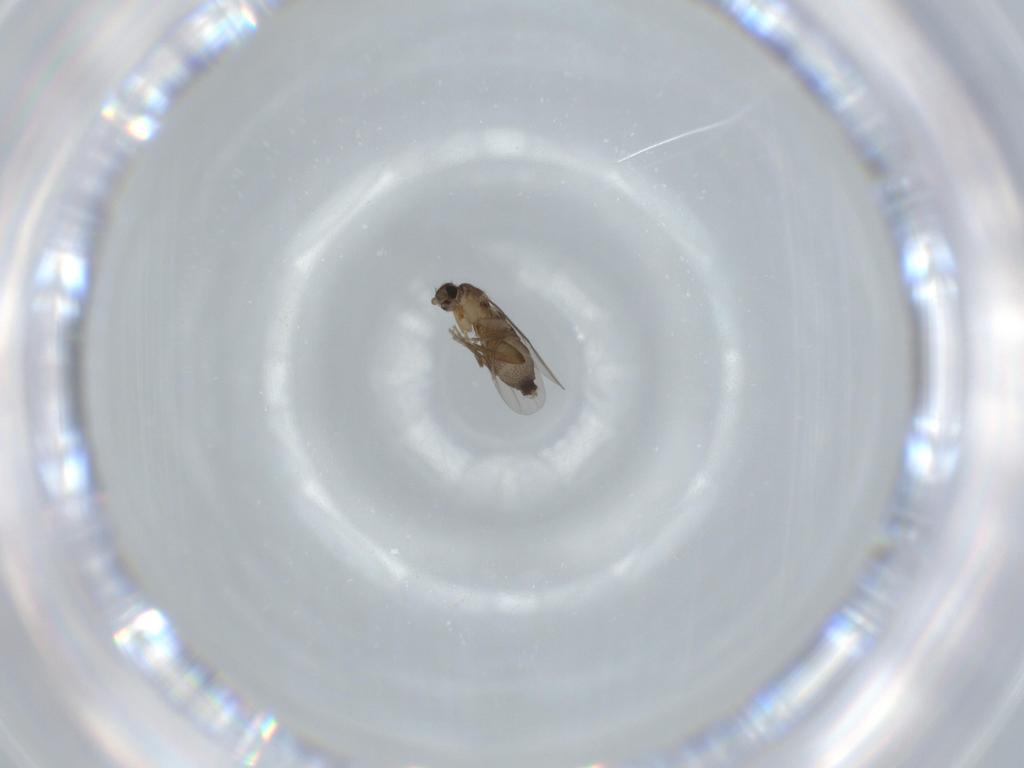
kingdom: Animalia
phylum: Arthropoda
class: Insecta
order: Diptera
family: Phoridae
